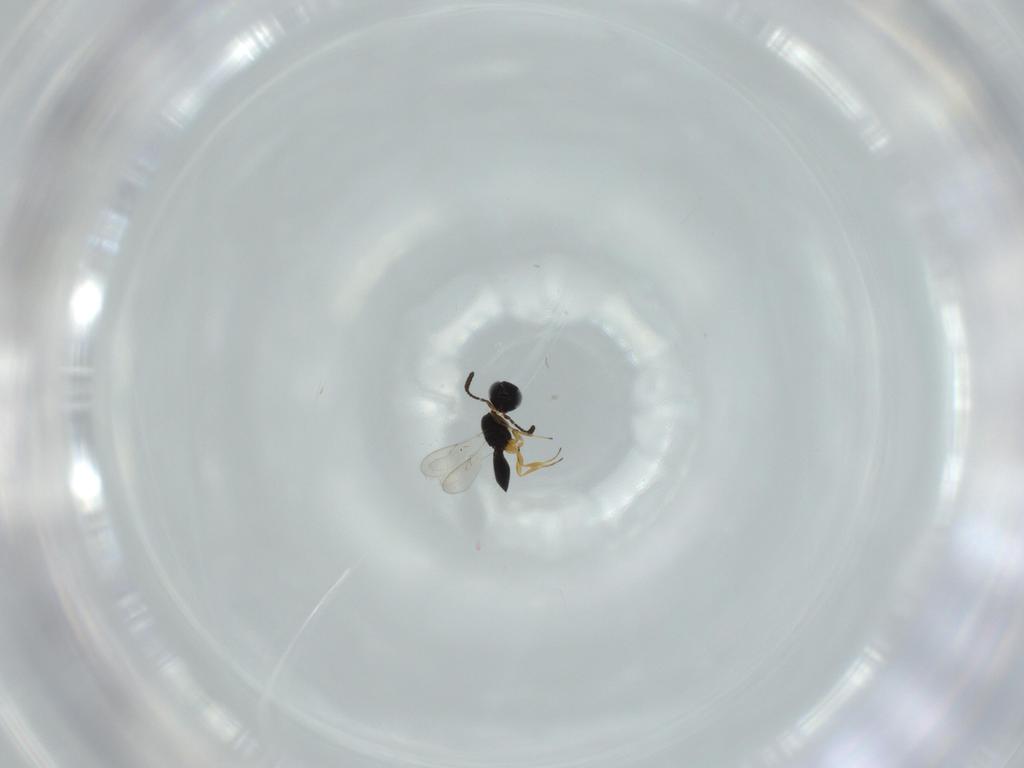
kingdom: Animalia
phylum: Arthropoda
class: Insecta
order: Hymenoptera
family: Scelionidae
